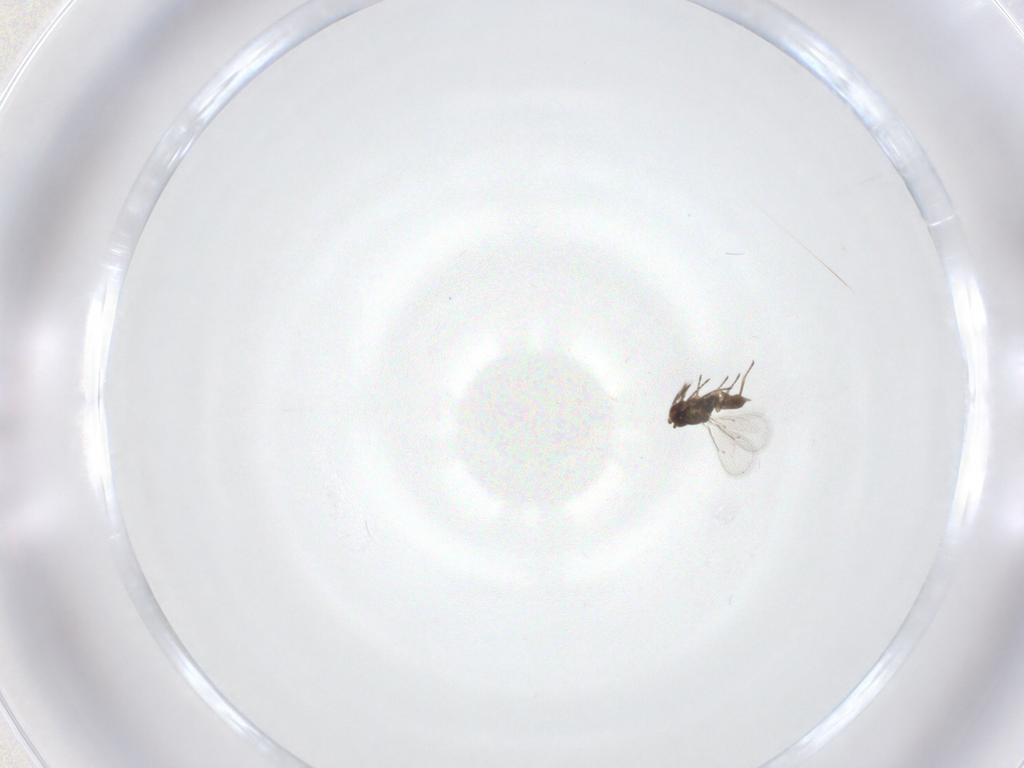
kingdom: Animalia
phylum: Arthropoda
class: Insecta
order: Hymenoptera
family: Eulophidae
